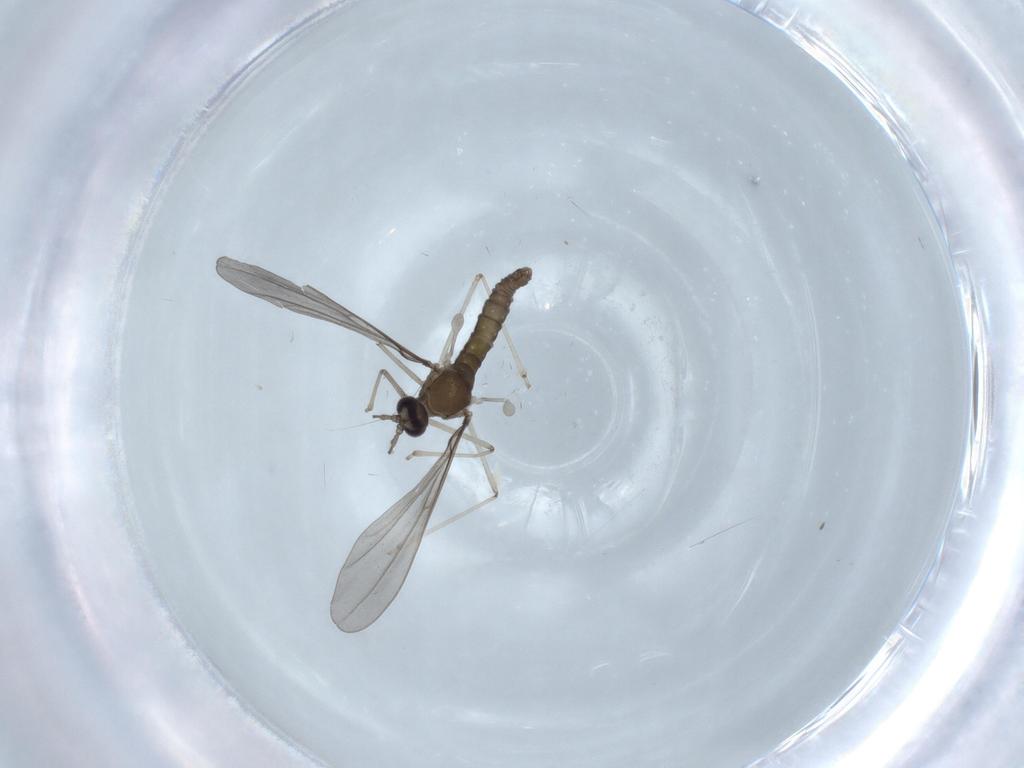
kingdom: Animalia
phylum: Arthropoda
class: Insecta
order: Diptera
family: Cecidomyiidae
